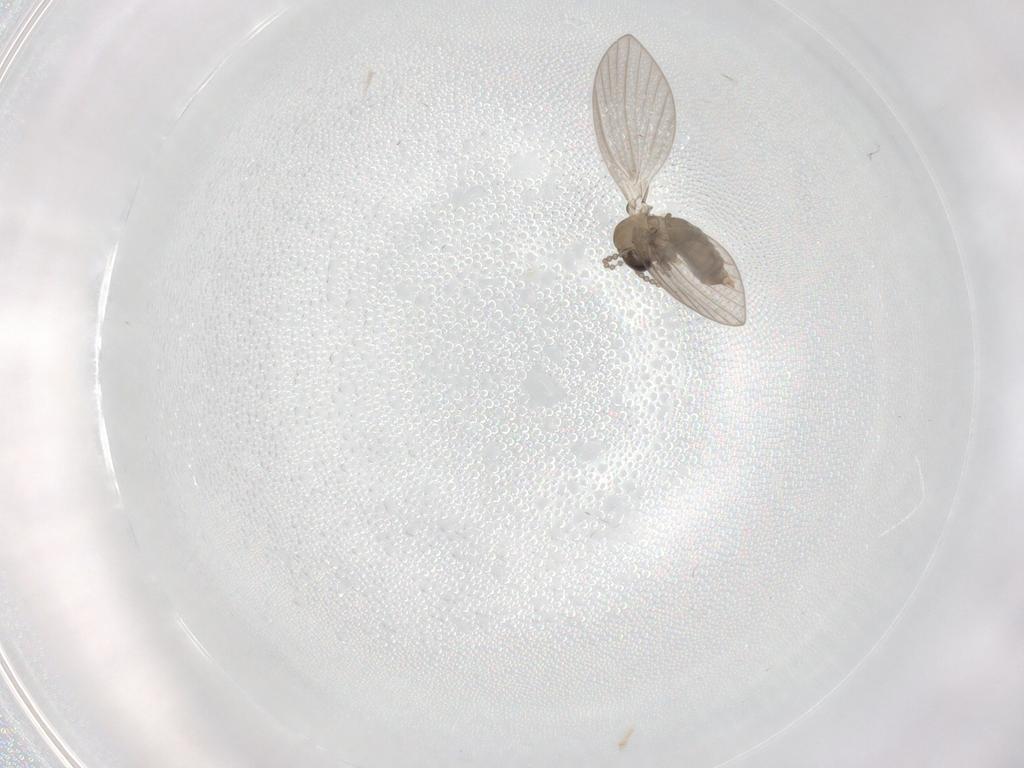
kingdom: Animalia
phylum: Arthropoda
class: Insecta
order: Diptera
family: Psychodidae
